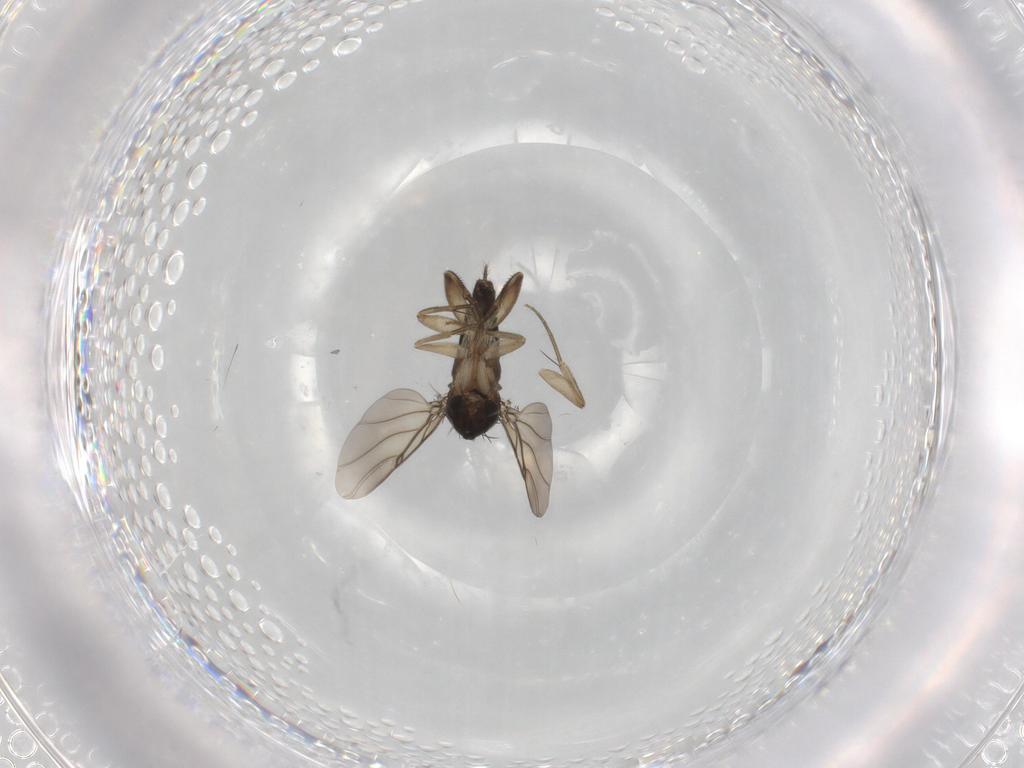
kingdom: Animalia
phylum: Arthropoda
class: Insecta
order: Diptera
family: Phoridae
